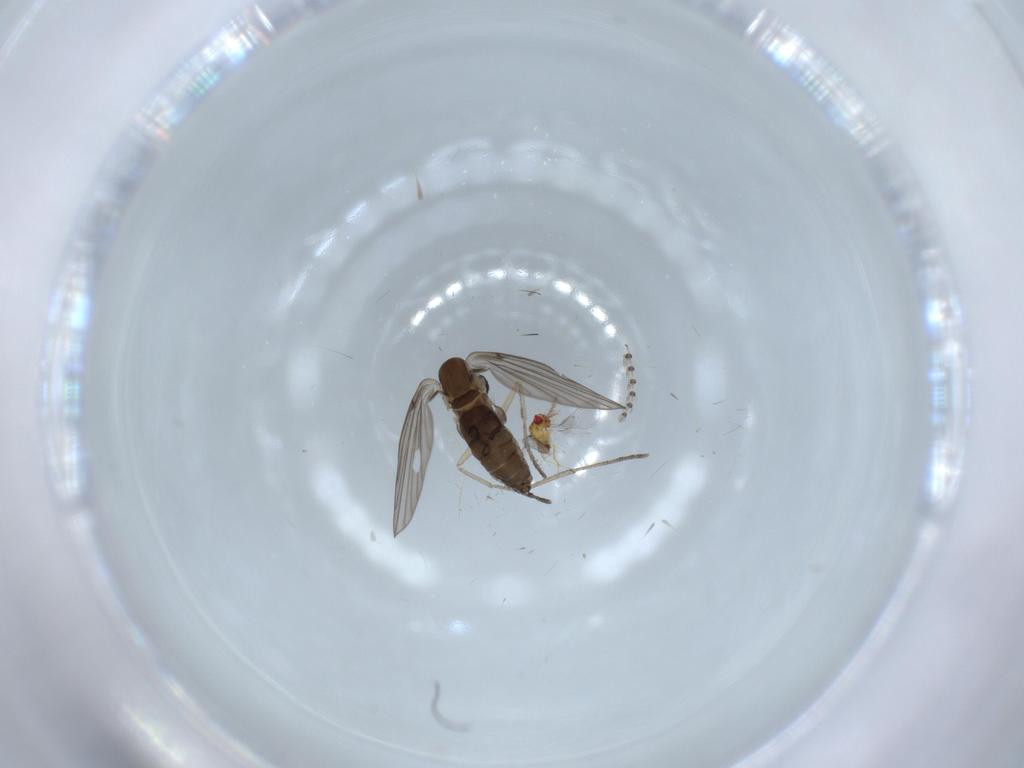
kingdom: Animalia
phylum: Arthropoda
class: Insecta
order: Hymenoptera
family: Trichogrammatidae
